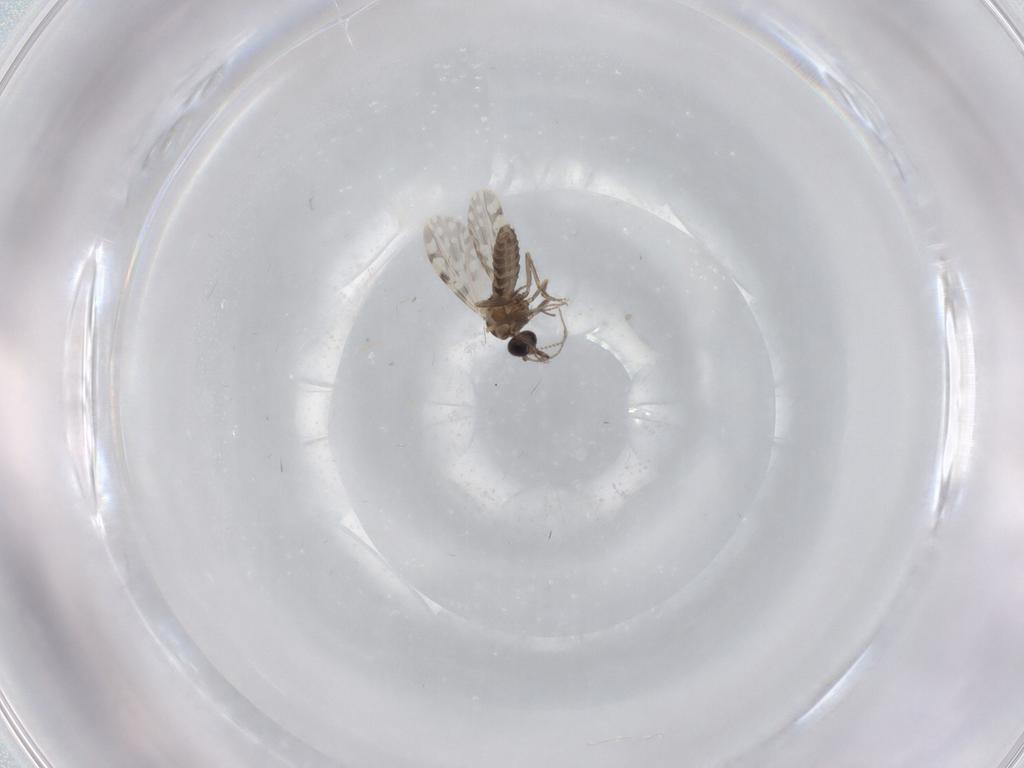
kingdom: Animalia
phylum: Arthropoda
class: Insecta
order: Diptera
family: Ceratopogonidae
